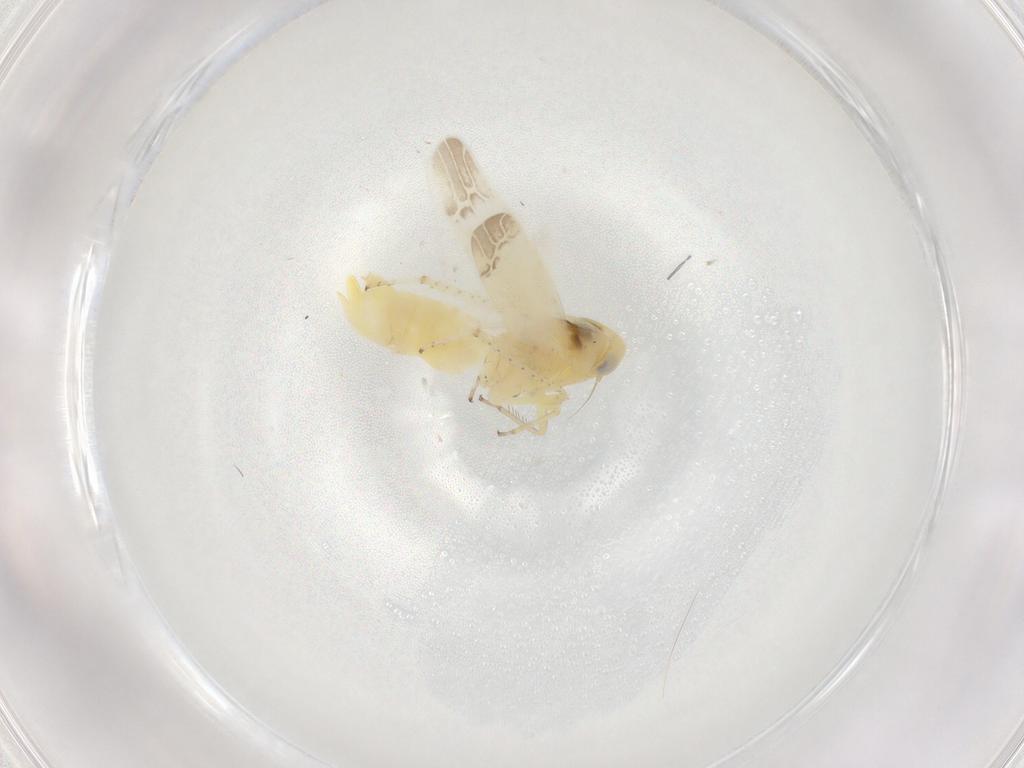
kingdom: Animalia
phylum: Arthropoda
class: Insecta
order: Hemiptera
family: Cicadellidae
